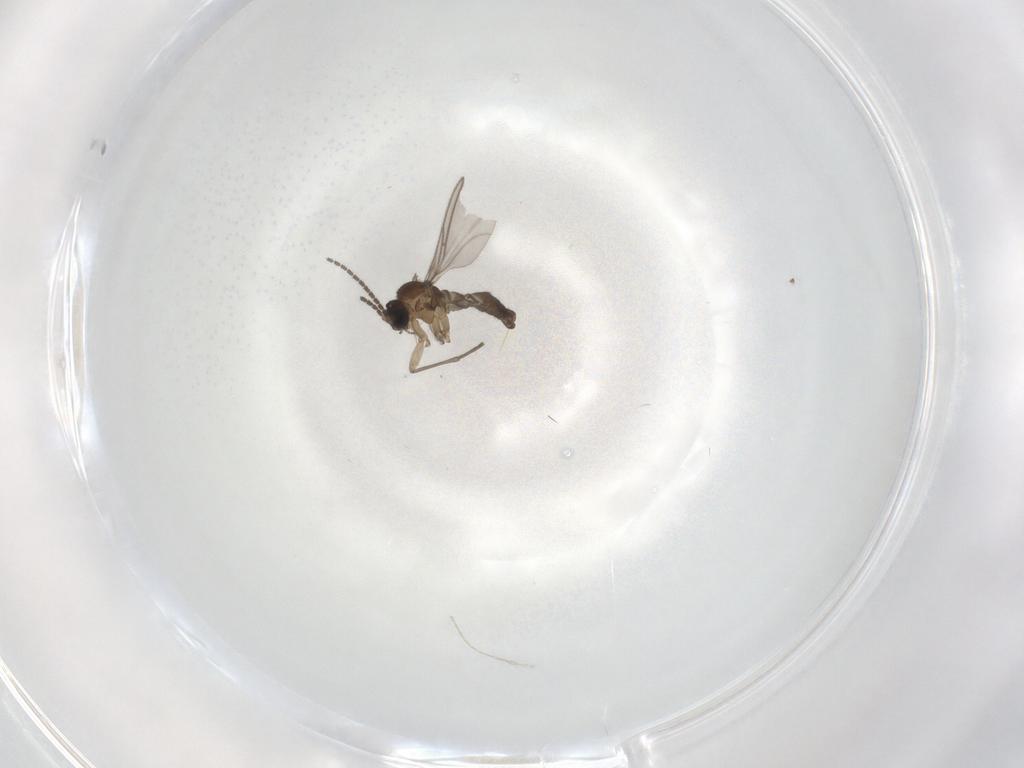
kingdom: Animalia
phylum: Arthropoda
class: Insecta
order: Diptera
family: Sciaridae
